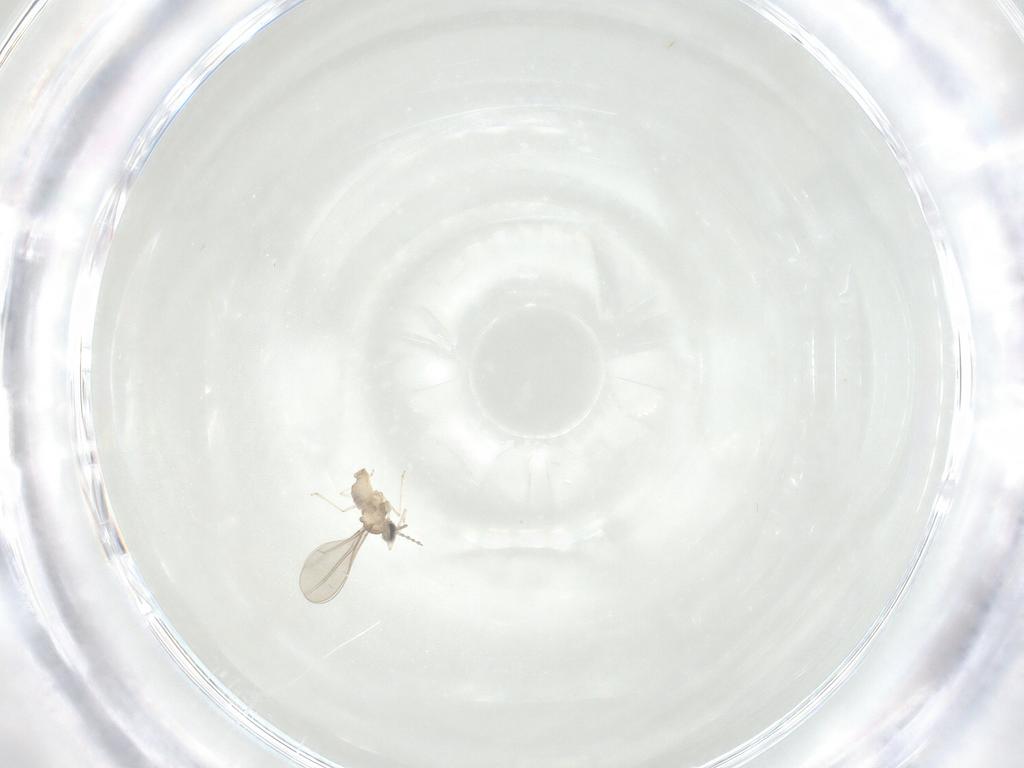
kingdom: Animalia
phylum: Arthropoda
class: Insecta
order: Diptera
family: Cecidomyiidae
